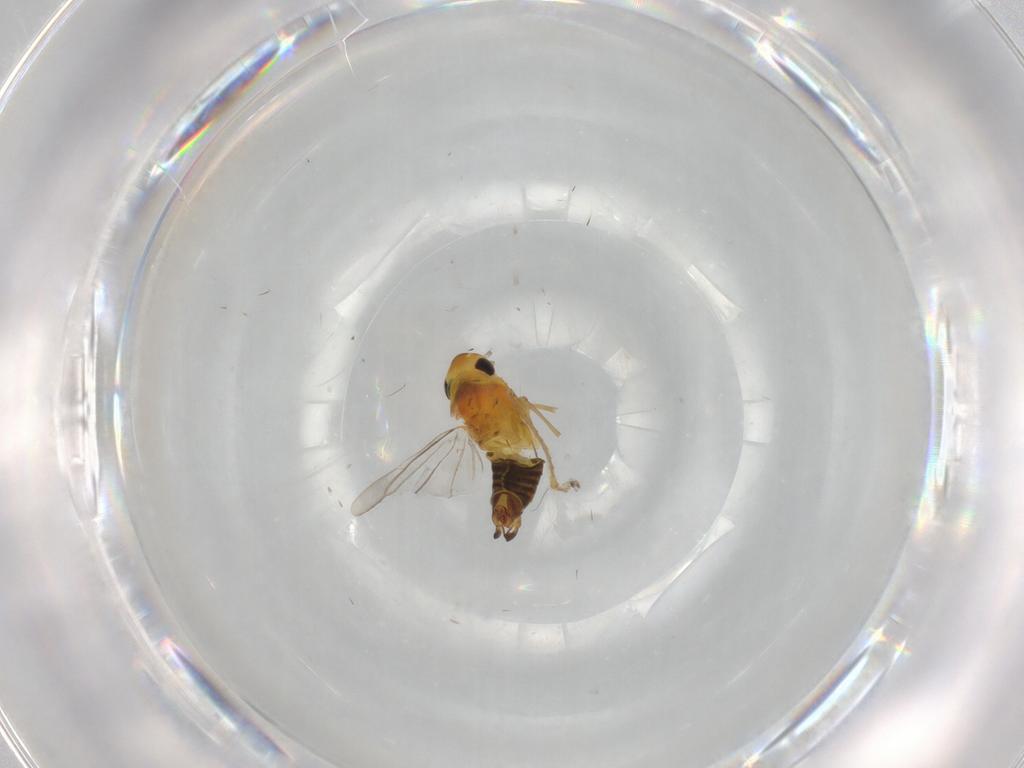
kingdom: Animalia
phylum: Arthropoda
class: Insecta
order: Hemiptera
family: Cicadellidae
